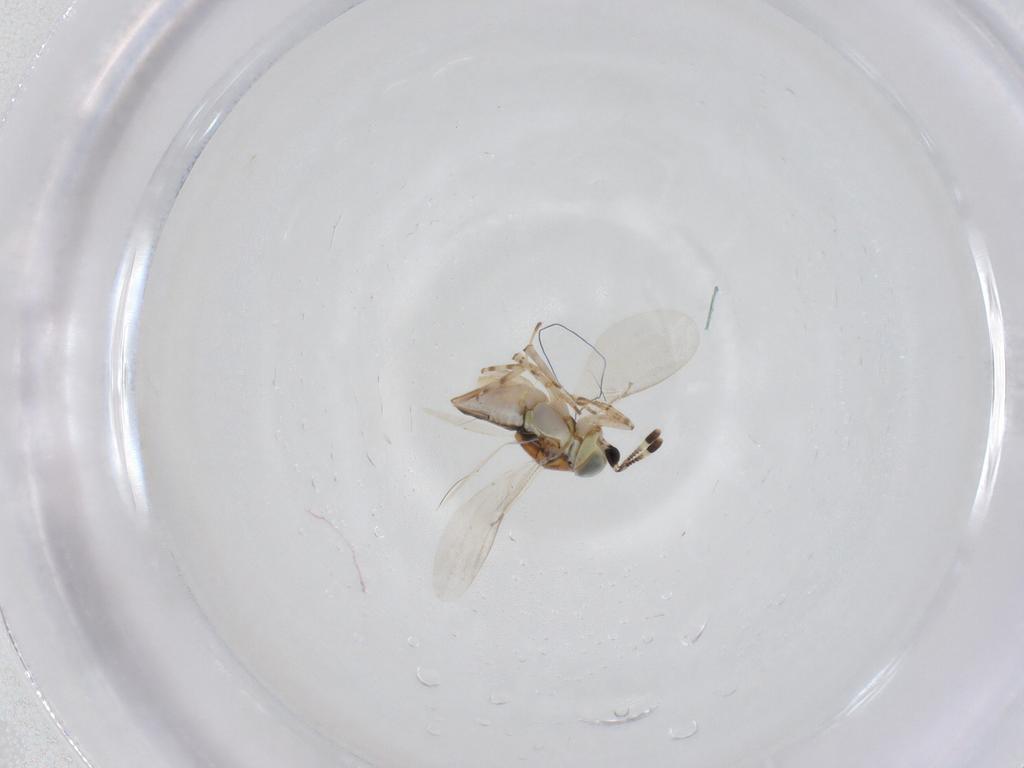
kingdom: Animalia
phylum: Arthropoda
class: Insecta
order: Hymenoptera
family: Encyrtidae
